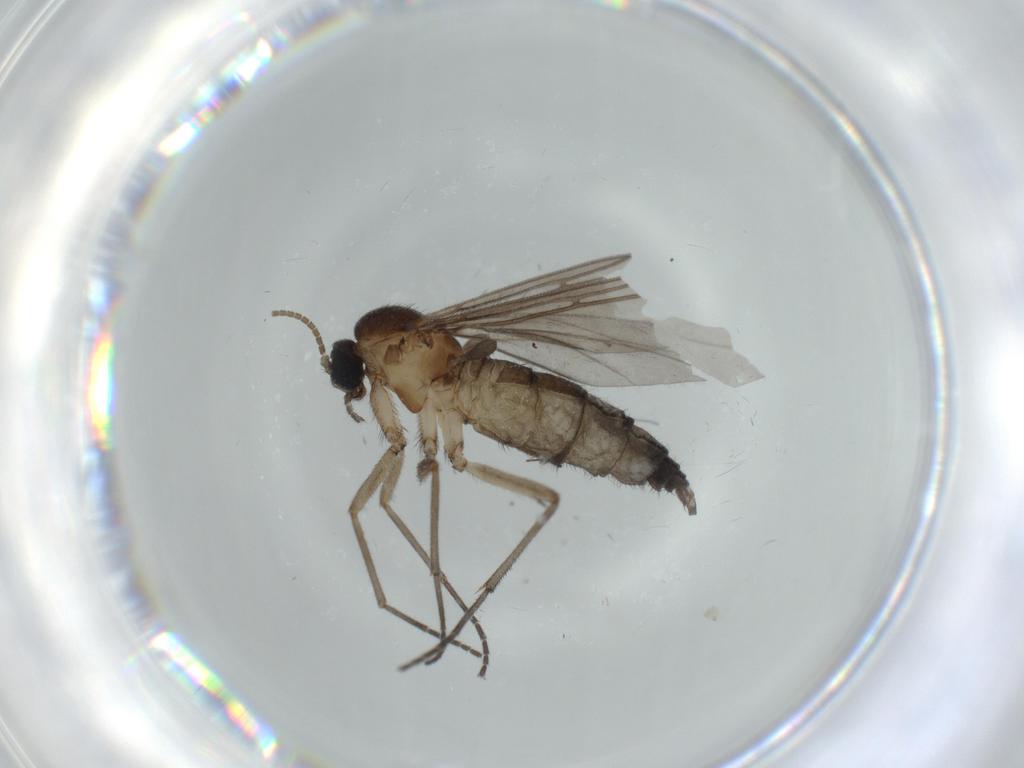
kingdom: Animalia
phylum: Arthropoda
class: Insecta
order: Diptera
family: Sciaridae
